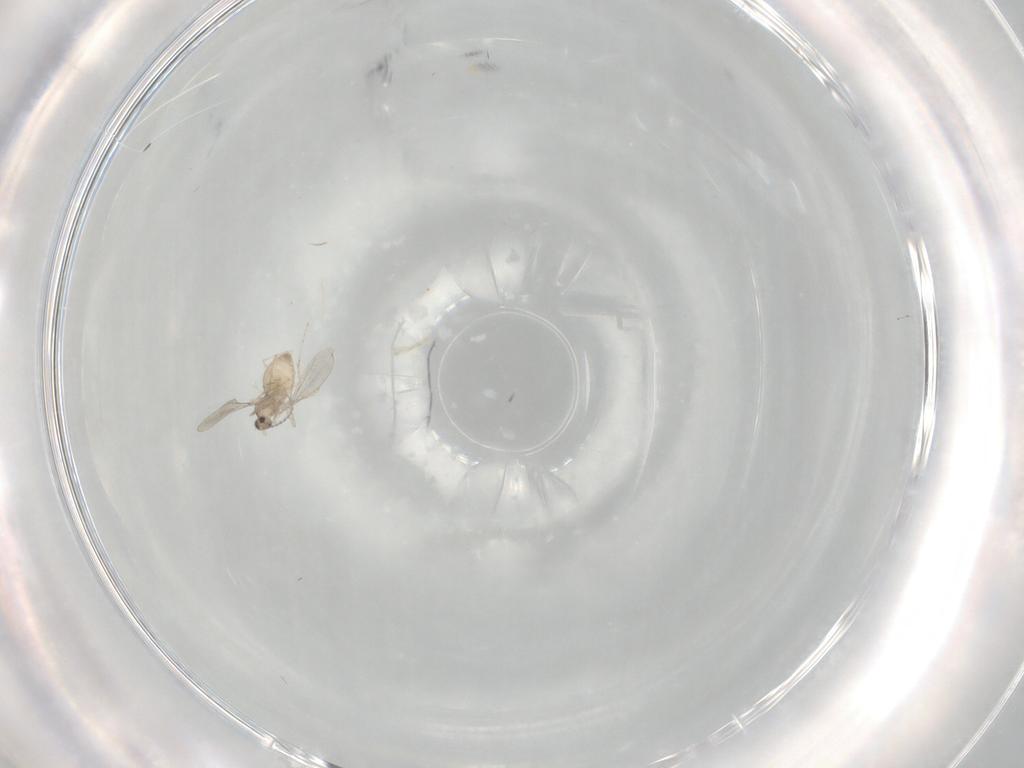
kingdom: Animalia
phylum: Arthropoda
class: Insecta
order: Diptera
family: Cecidomyiidae
